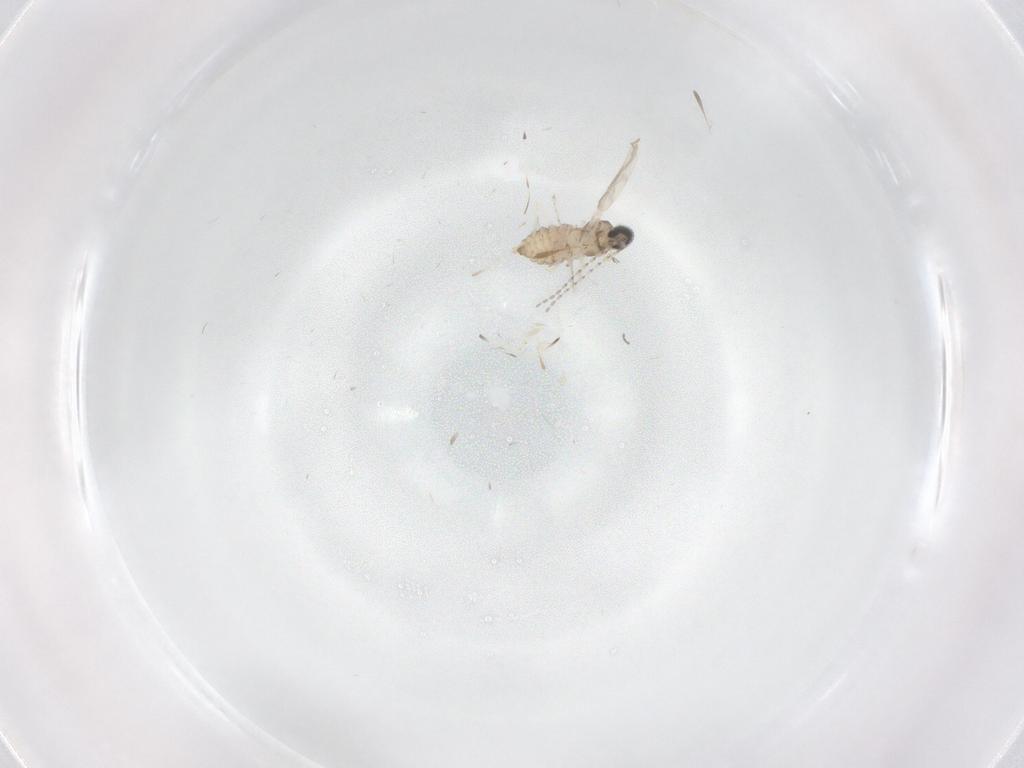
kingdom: Animalia
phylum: Arthropoda
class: Insecta
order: Diptera
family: Cecidomyiidae
